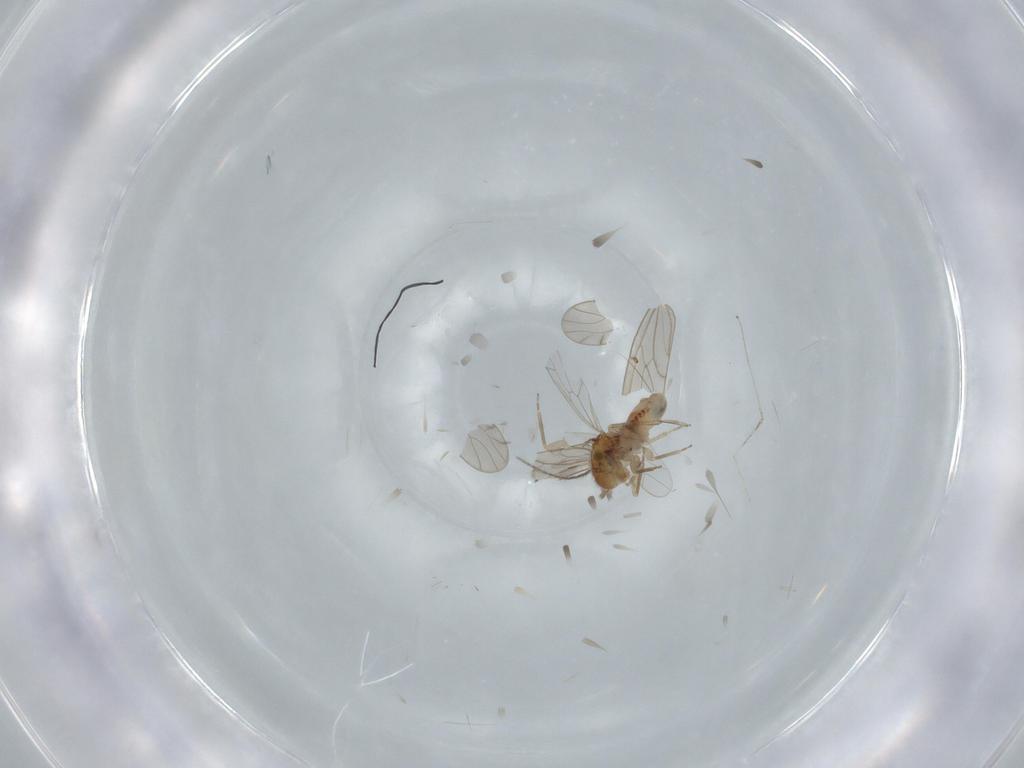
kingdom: Animalia
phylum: Arthropoda
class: Insecta
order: Psocodea
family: Ectopsocidae
